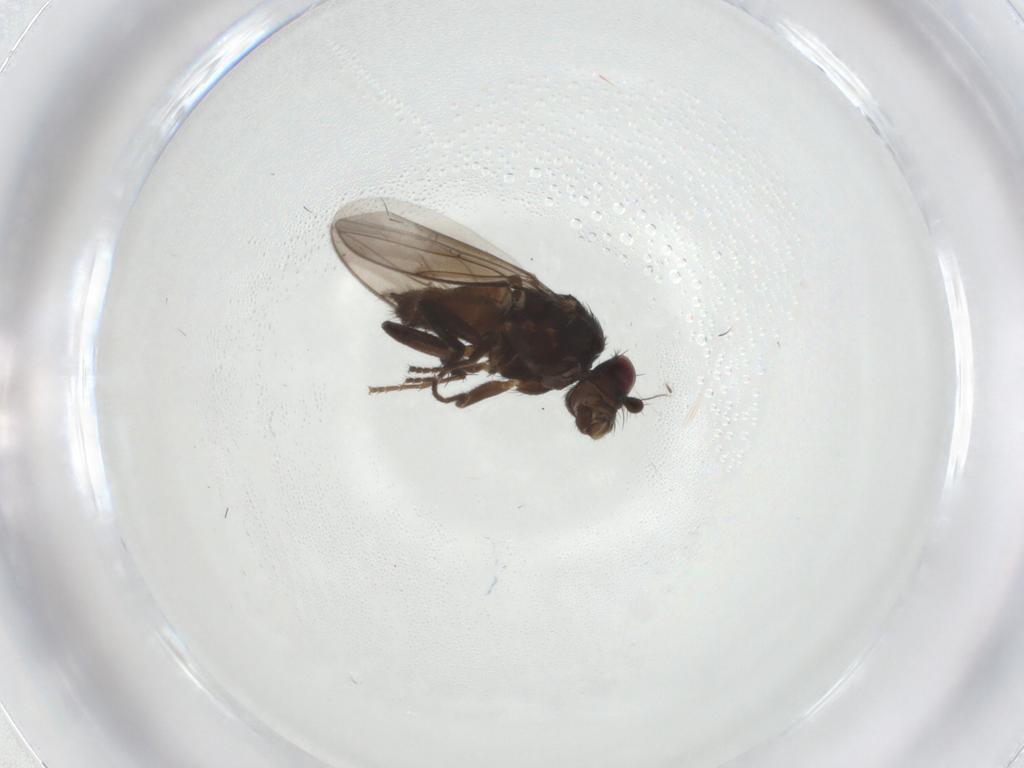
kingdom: Animalia
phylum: Arthropoda
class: Insecta
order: Diptera
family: Sphaeroceridae
